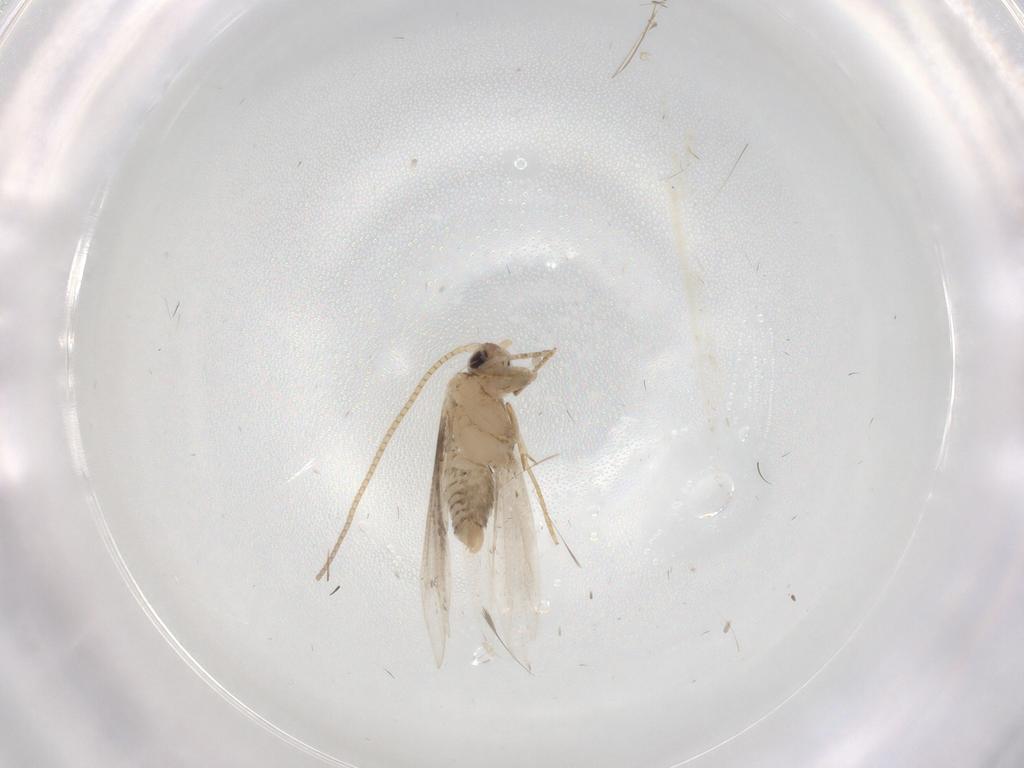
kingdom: Animalia
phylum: Arthropoda
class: Insecta
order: Lepidoptera
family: Tineidae
